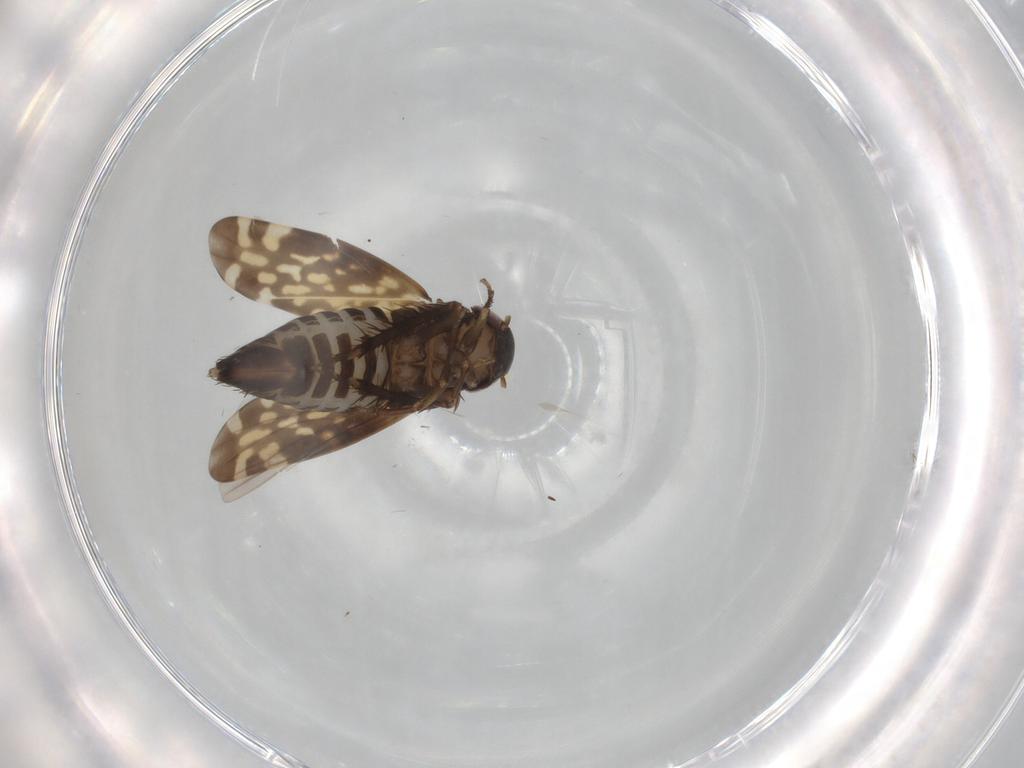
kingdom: Animalia
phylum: Arthropoda
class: Insecta
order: Hemiptera
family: Cicadellidae
